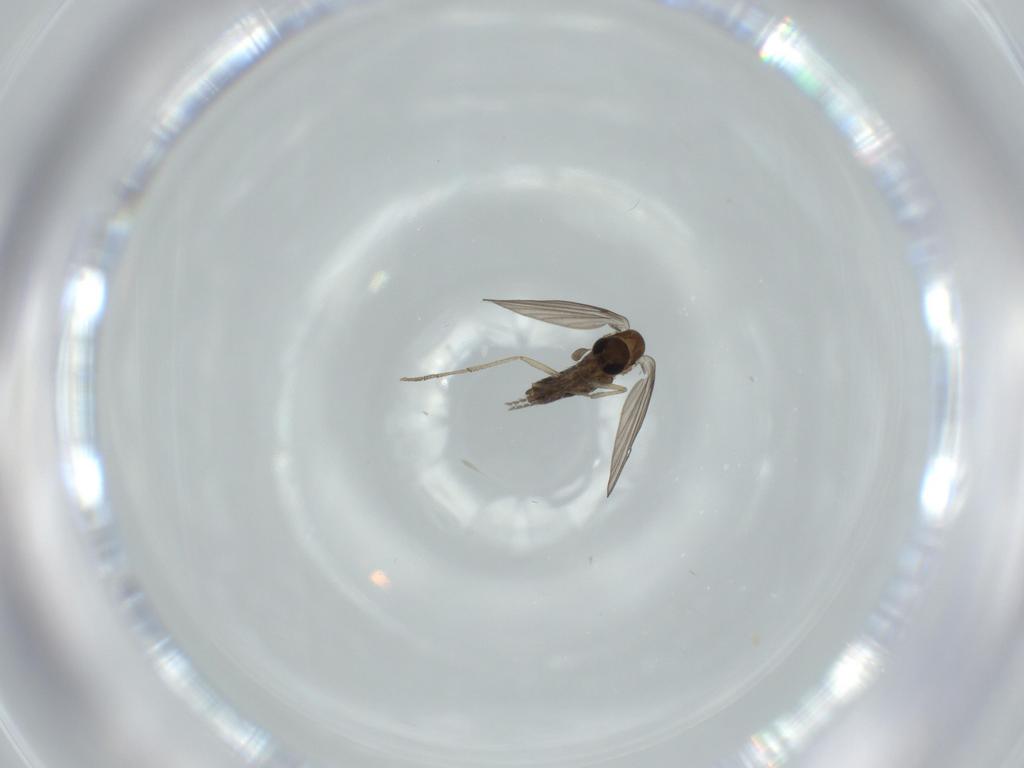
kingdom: Animalia
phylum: Arthropoda
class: Insecta
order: Diptera
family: Psychodidae
